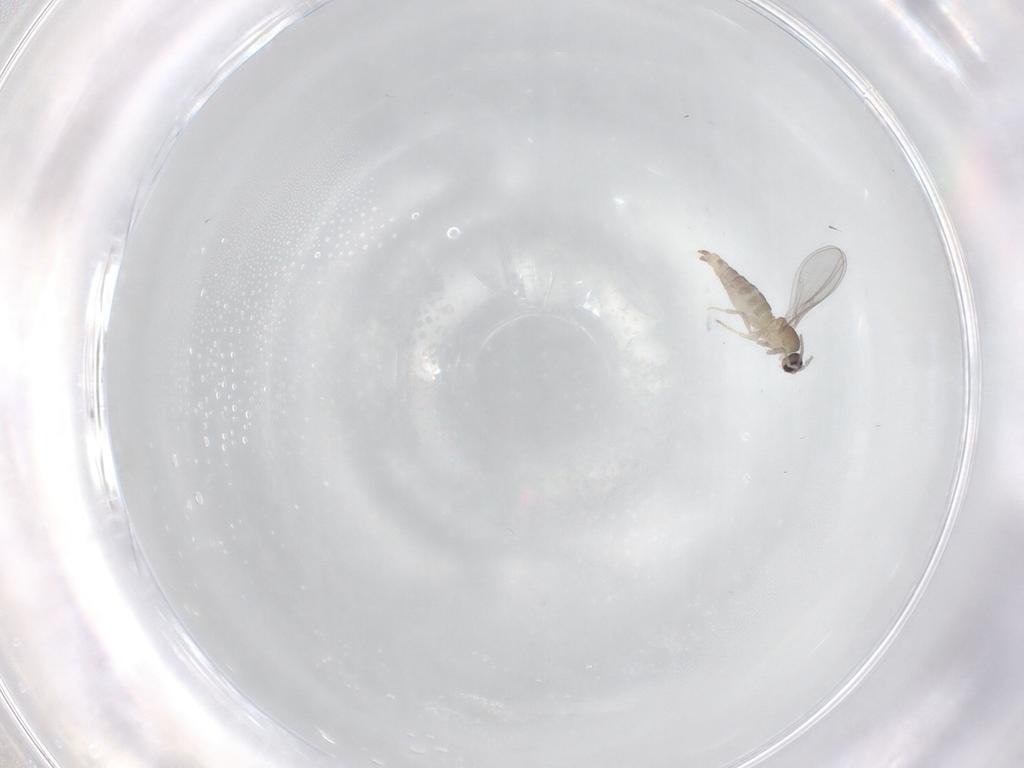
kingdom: Animalia
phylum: Arthropoda
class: Insecta
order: Diptera
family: Cecidomyiidae
